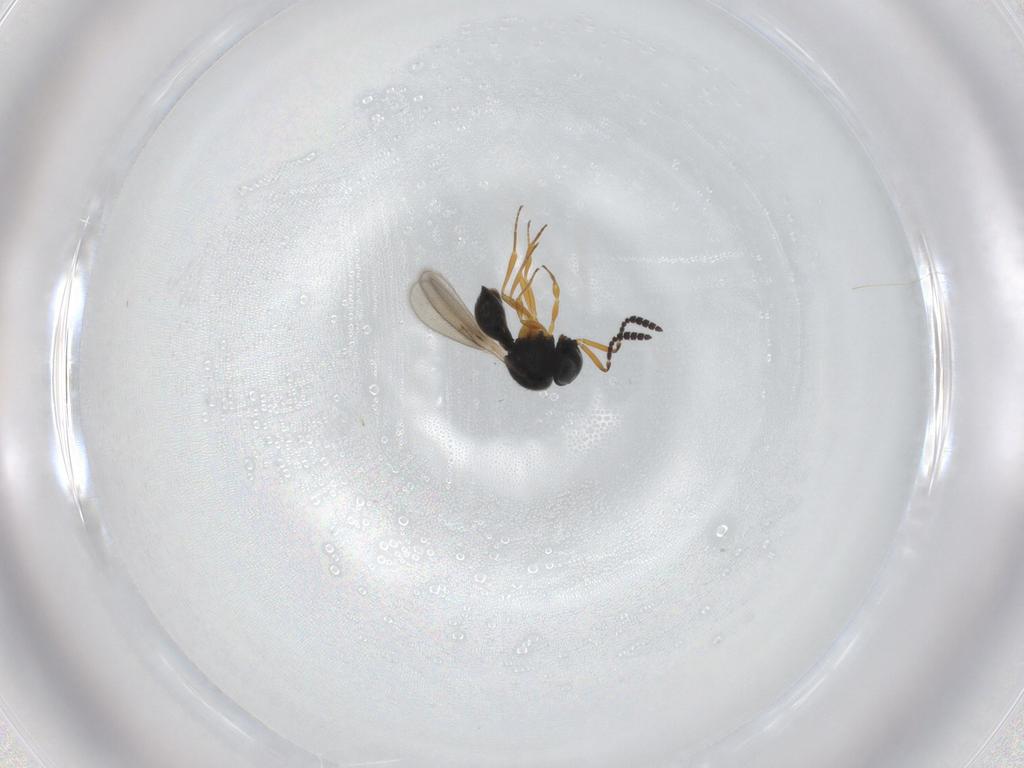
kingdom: Animalia
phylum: Arthropoda
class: Insecta
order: Hymenoptera
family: Scelionidae
